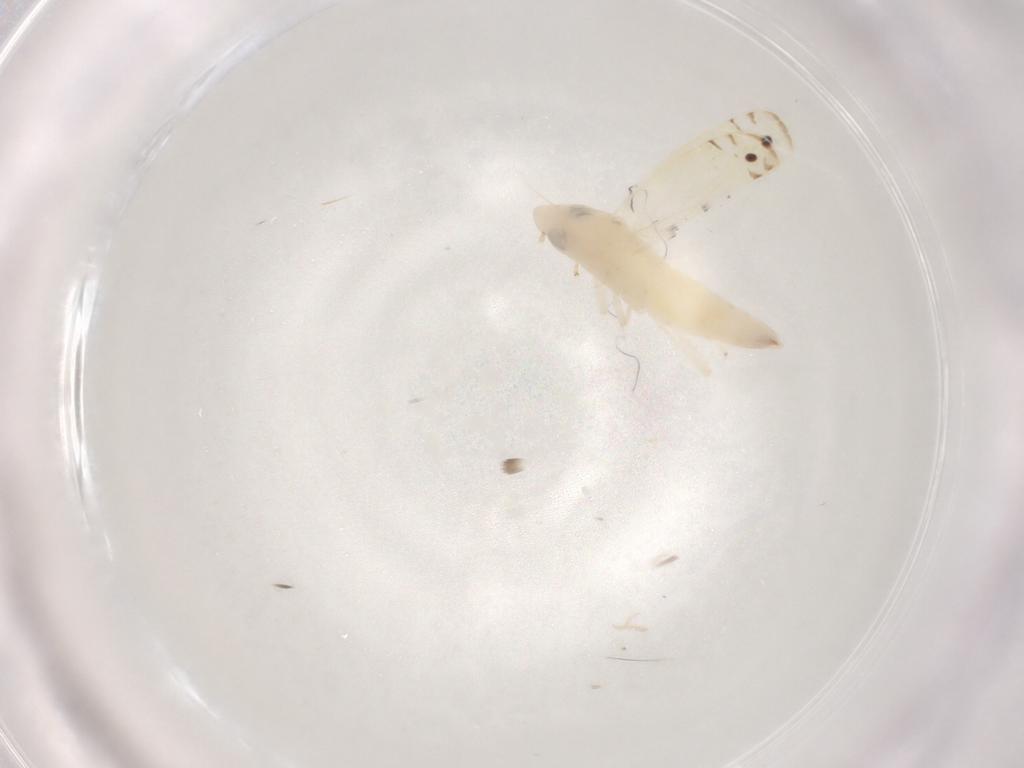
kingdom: Animalia
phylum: Arthropoda
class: Insecta
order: Hemiptera
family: Cicadellidae
